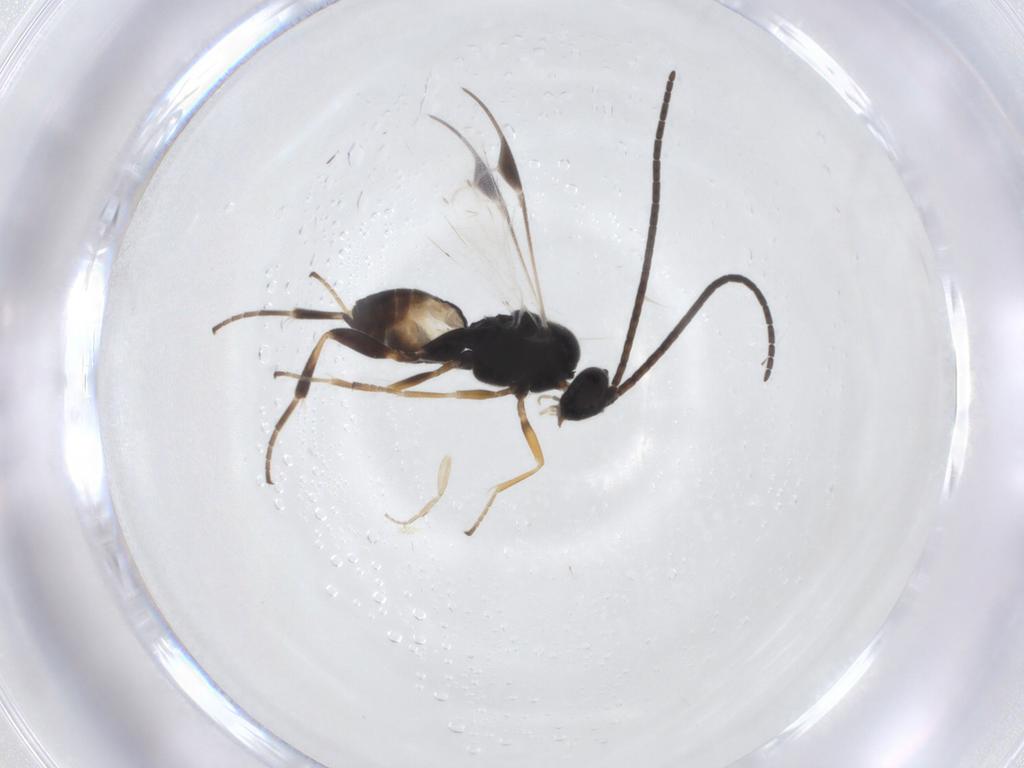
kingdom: Animalia
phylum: Arthropoda
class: Insecta
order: Hymenoptera
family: Braconidae
